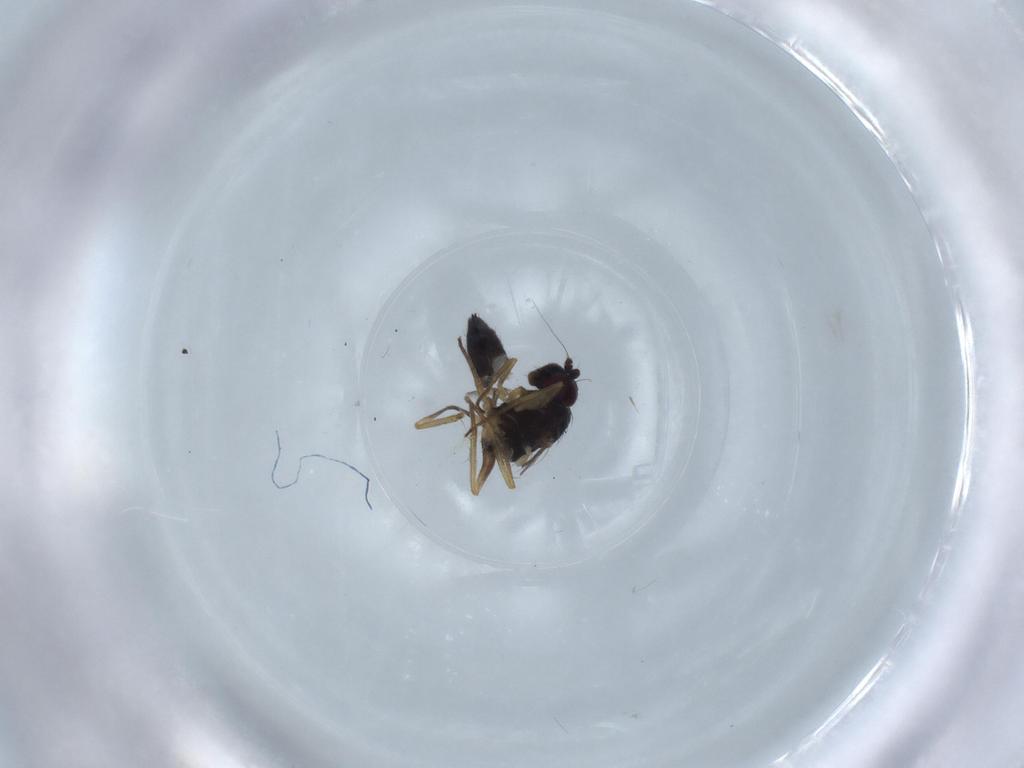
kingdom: Animalia
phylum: Arthropoda
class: Insecta
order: Diptera
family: Dolichopodidae
